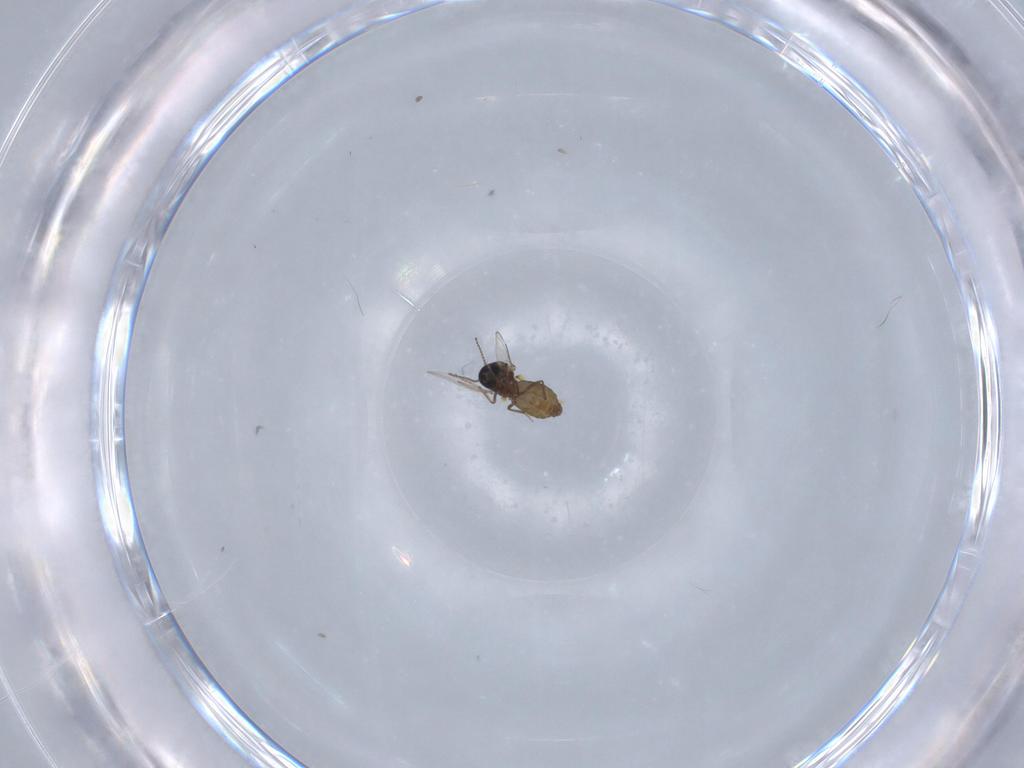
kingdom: Animalia
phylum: Arthropoda
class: Insecta
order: Diptera
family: Ceratopogonidae
